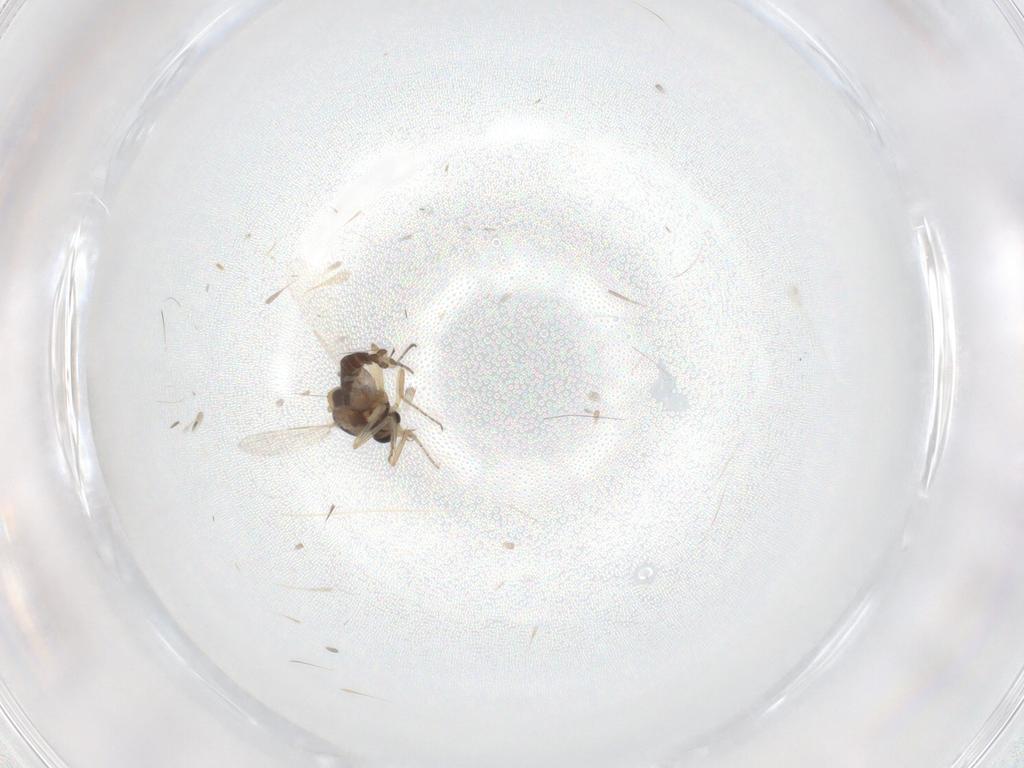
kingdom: Animalia
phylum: Arthropoda
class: Insecta
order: Diptera
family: Ceratopogonidae
